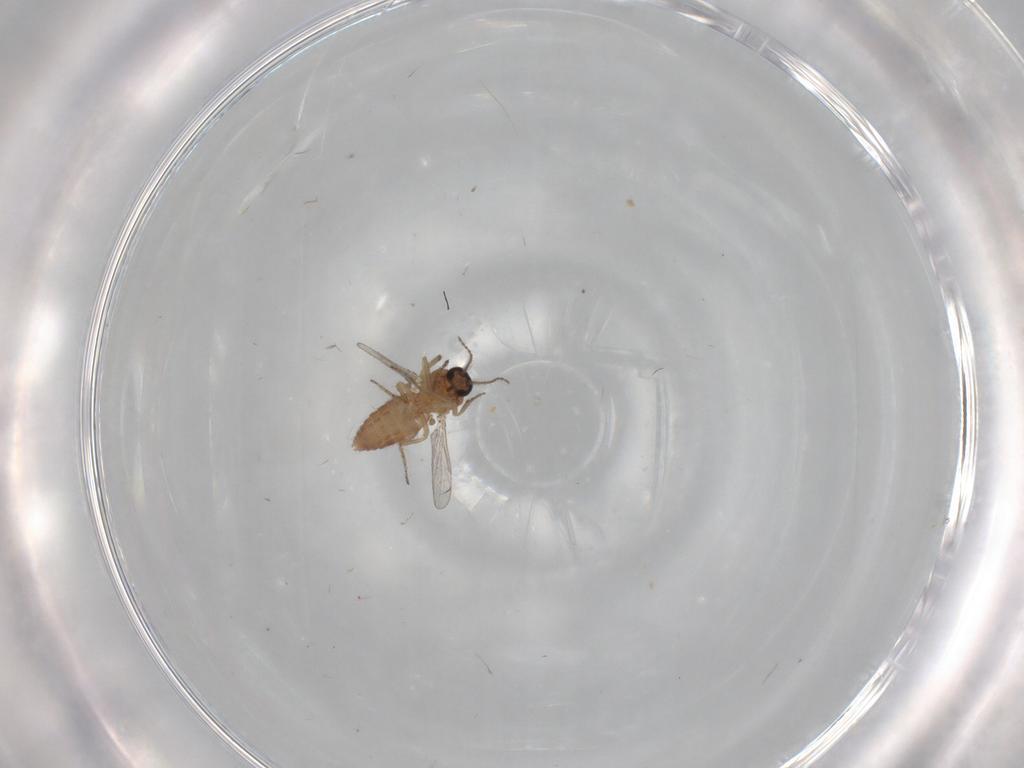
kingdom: Animalia
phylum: Arthropoda
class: Insecta
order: Diptera
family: Ceratopogonidae
